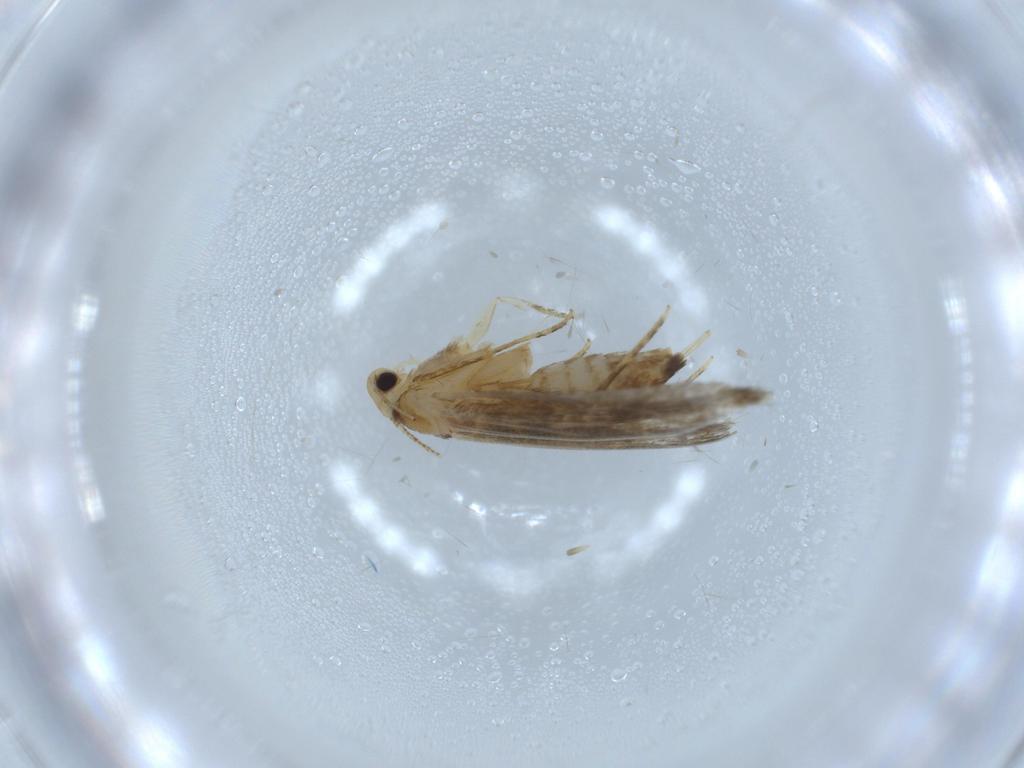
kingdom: Animalia
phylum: Arthropoda
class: Insecta
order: Lepidoptera
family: Tineidae
